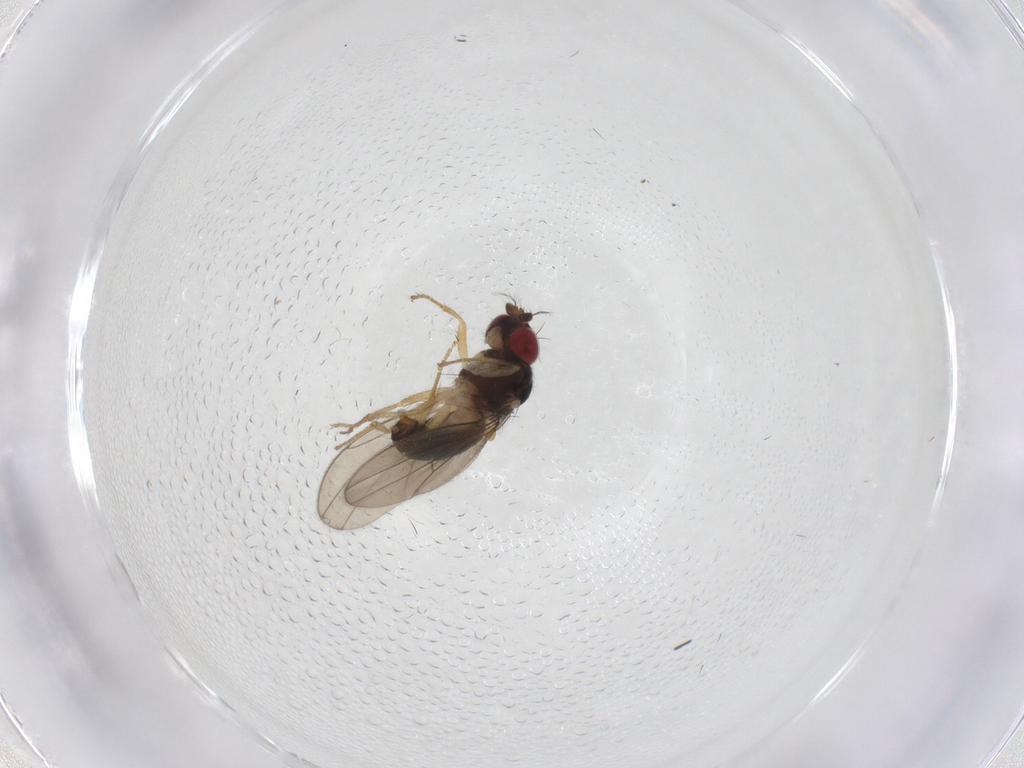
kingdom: Animalia
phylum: Arthropoda
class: Insecta
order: Diptera
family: Drosophilidae
